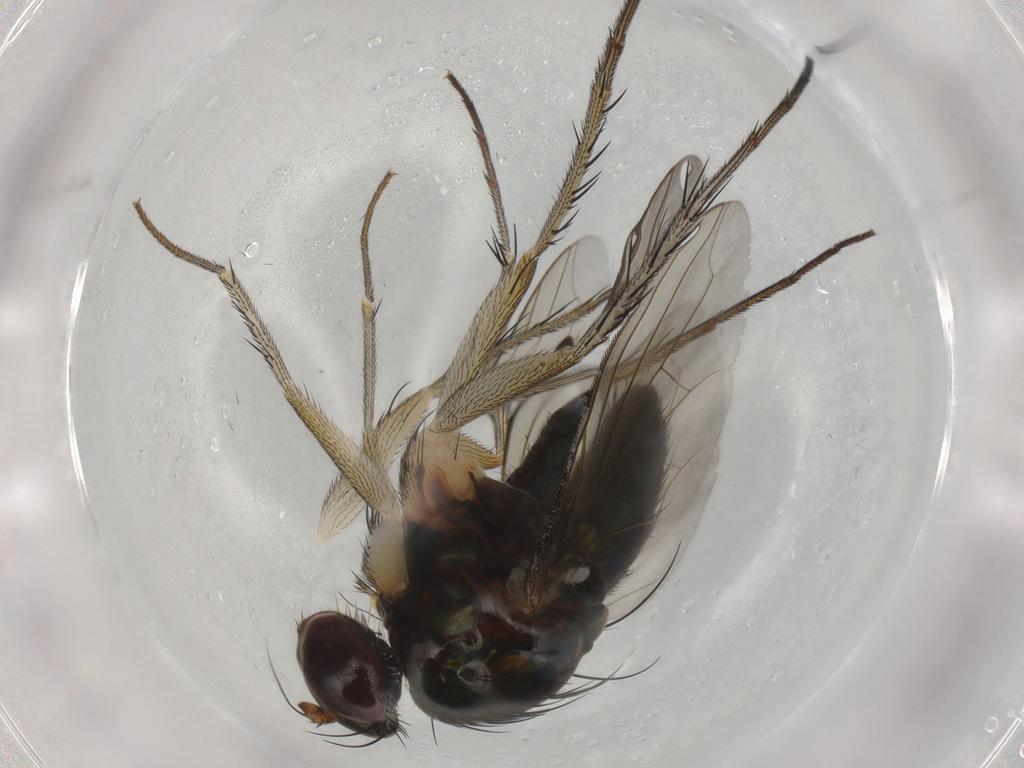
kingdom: Animalia
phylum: Arthropoda
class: Insecta
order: Diptera
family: Dolichopodidae
